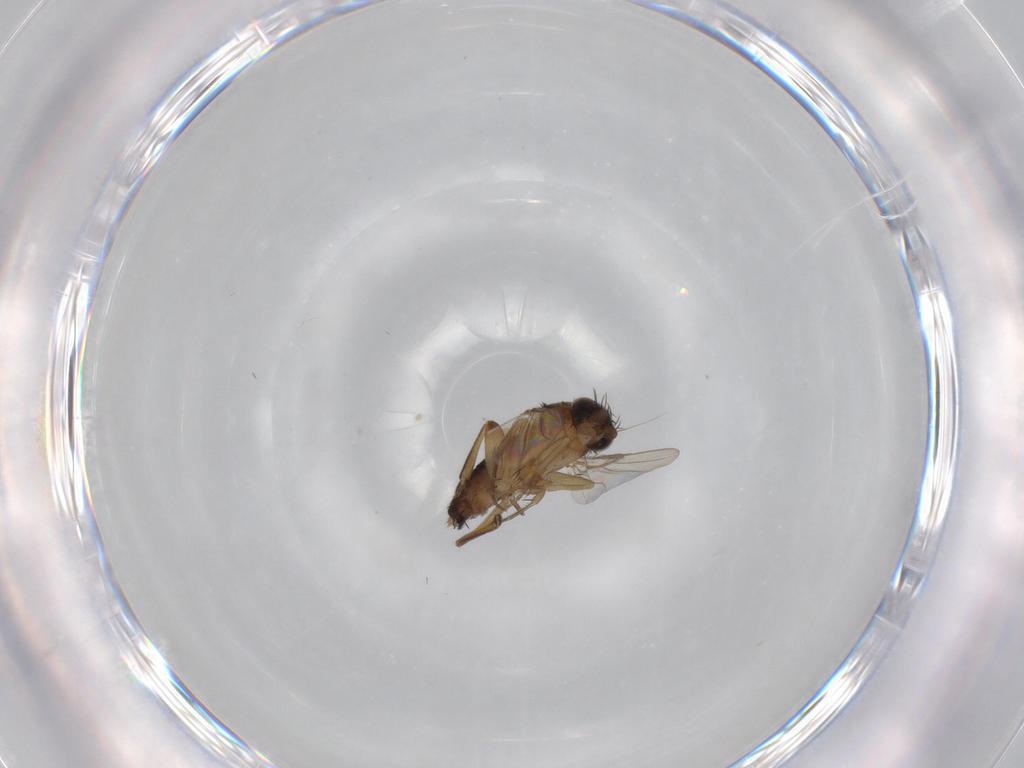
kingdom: Animalia
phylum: Arthropoda
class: Insecta
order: Diptera
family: Phoridae
